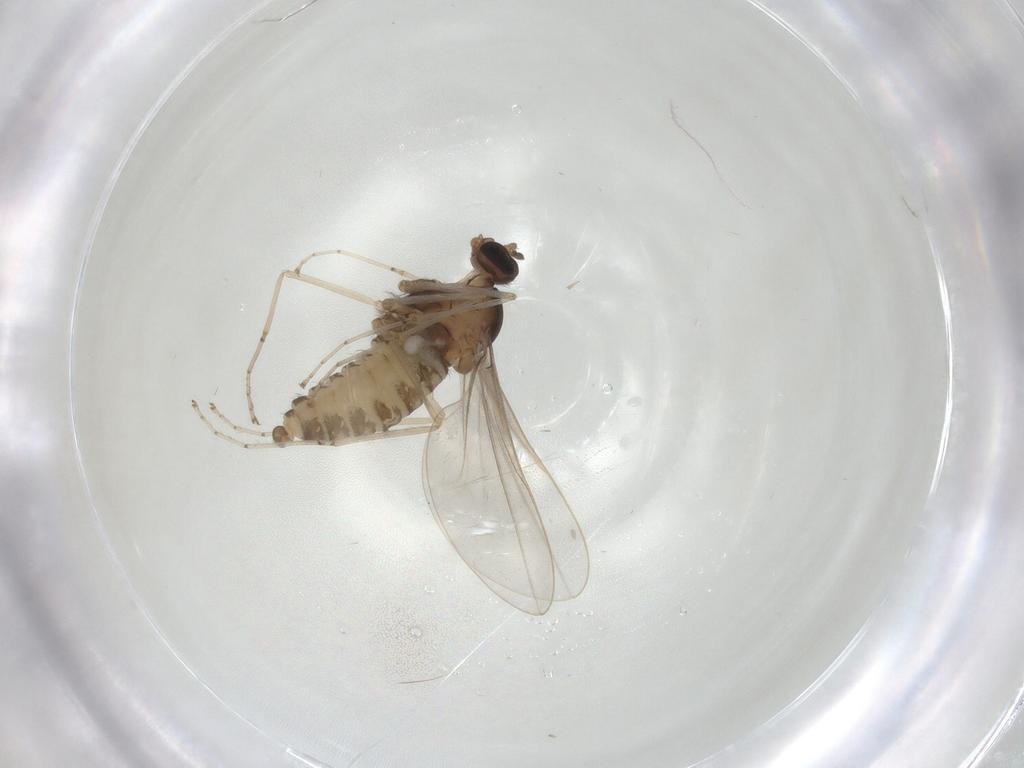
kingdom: Animalia
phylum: Arthropoda
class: Insecta
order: Diptera
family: Cecidomyiidae
